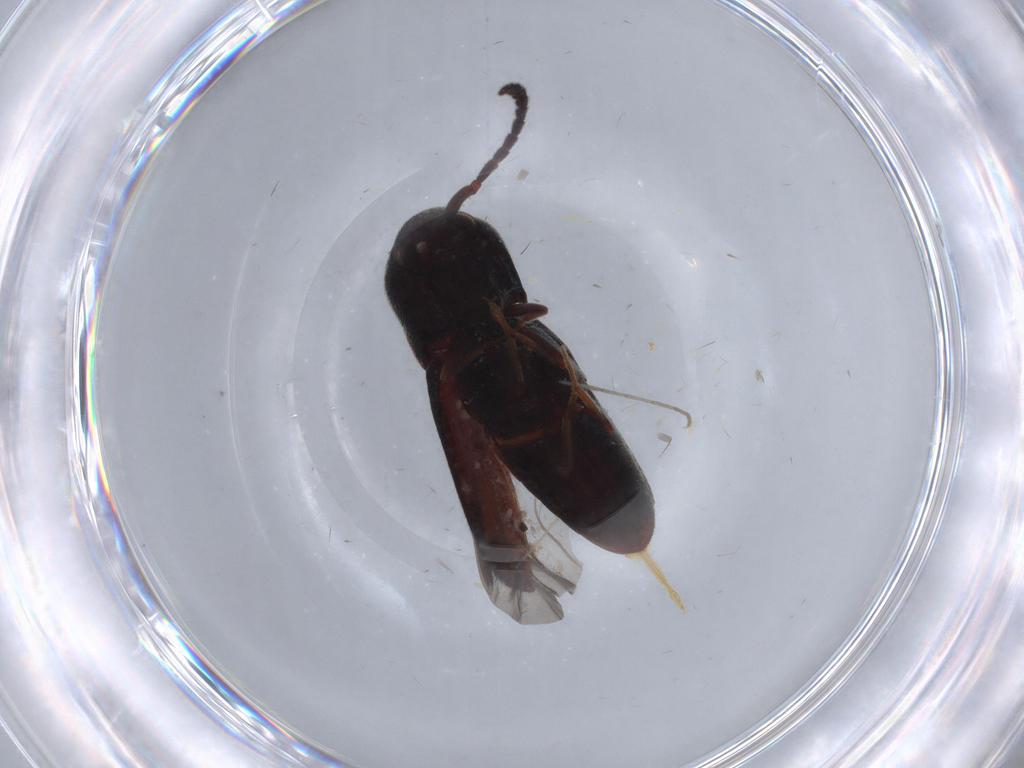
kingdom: Animalia
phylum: Arthropoda
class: Insecta
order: Coleoptera
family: Eucnemidae
